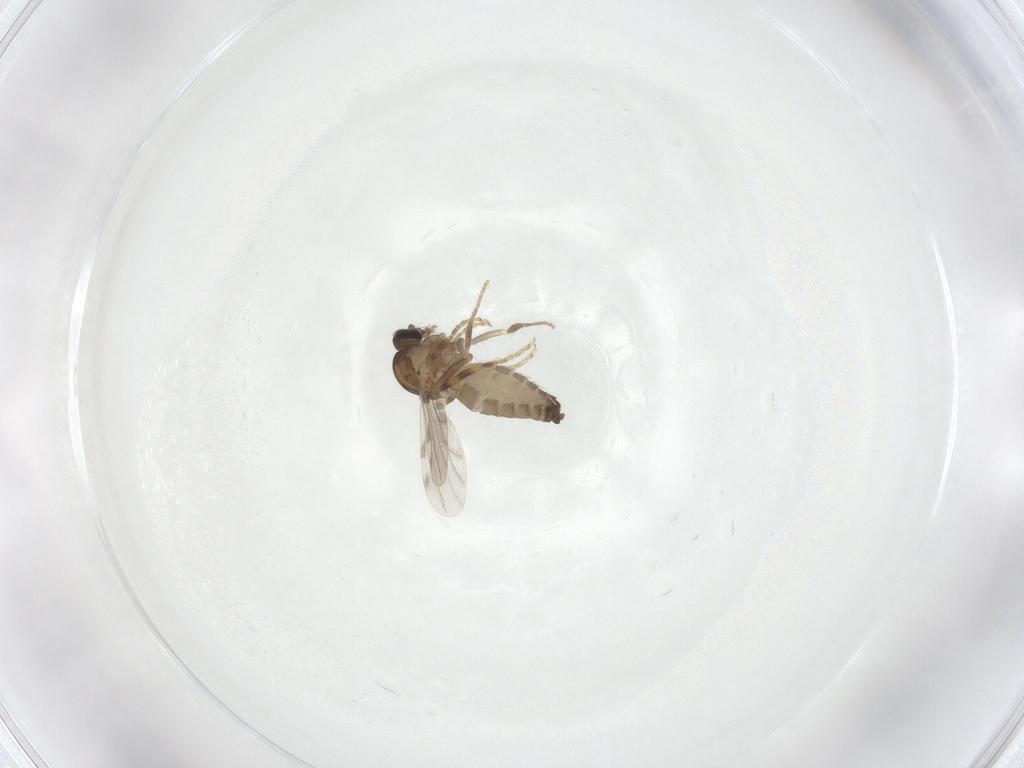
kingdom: Animalia
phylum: Arthropoda
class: Insecta
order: Diptera
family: Ceratopogonidae
